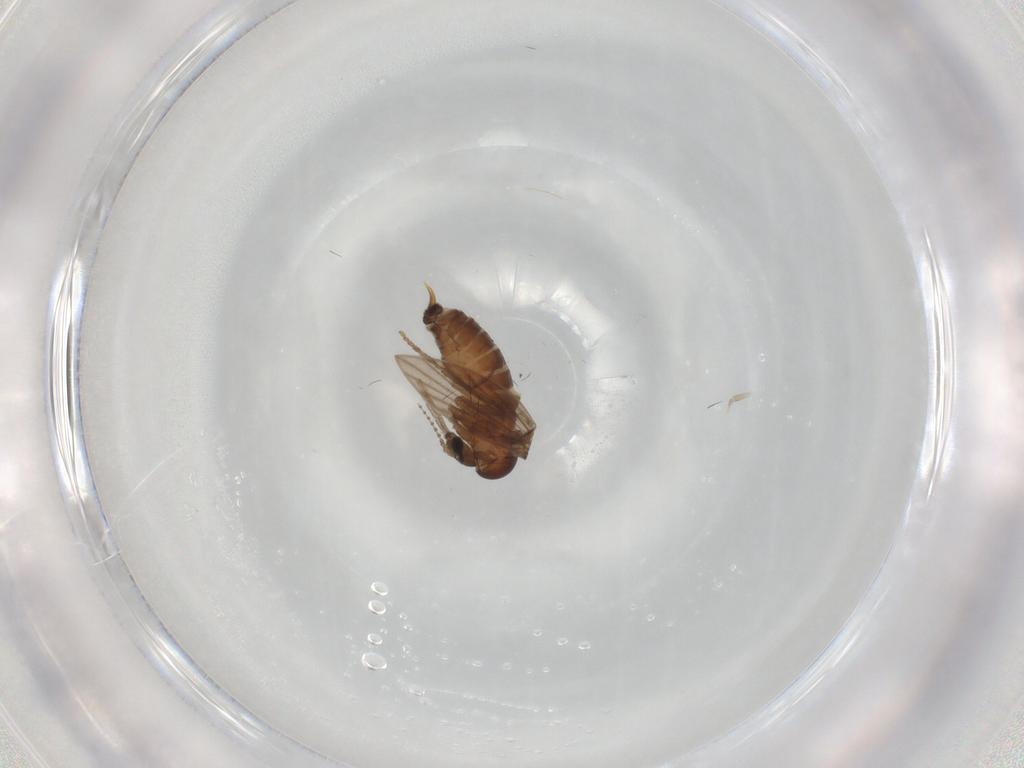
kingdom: Animalia
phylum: Arthropoda
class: Insecta
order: Diptera
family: Psychodidae
